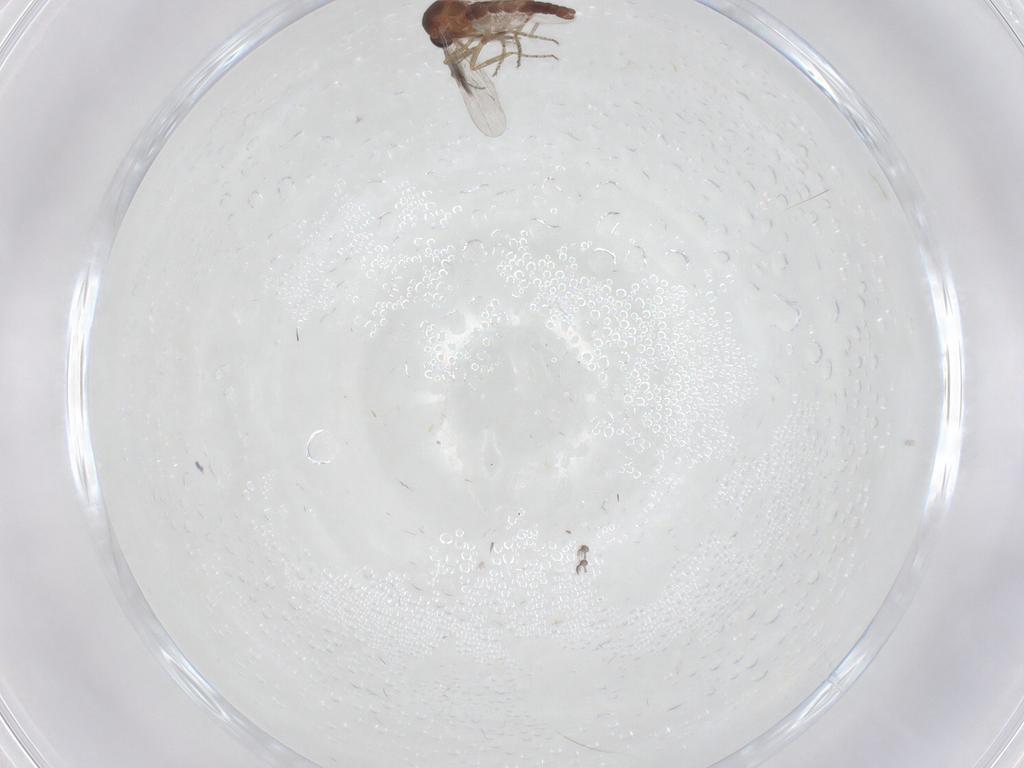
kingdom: Animalia
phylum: Arthropoda
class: Insecta
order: Diptera
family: Ceratopogonidae
